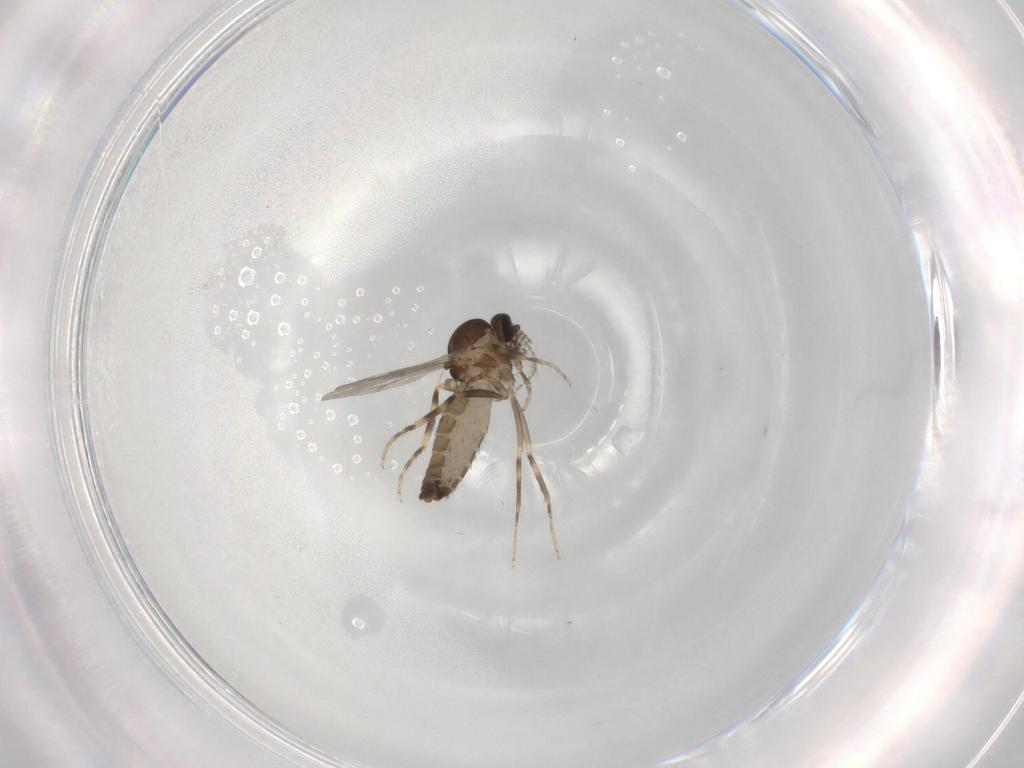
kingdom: Animalia
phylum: Arthropoda
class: Insecta
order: Diptera
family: Ceratopogonidae
